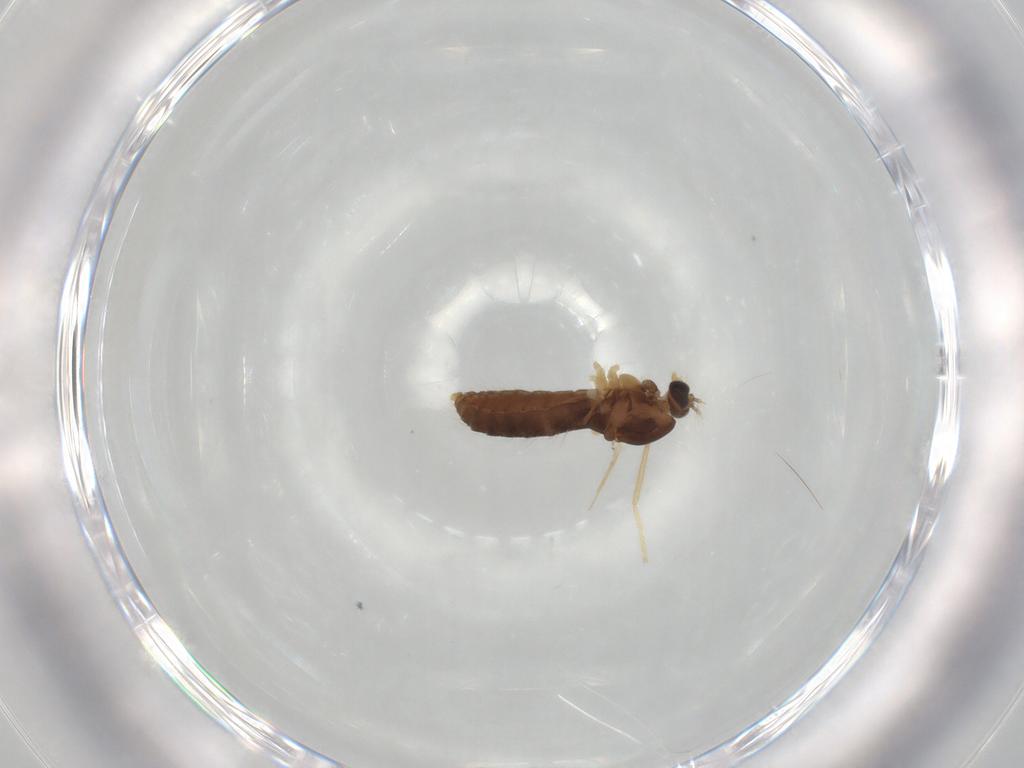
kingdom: Animalia
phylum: Arthropoda
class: Insecta
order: Diptera
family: Chironomidae
